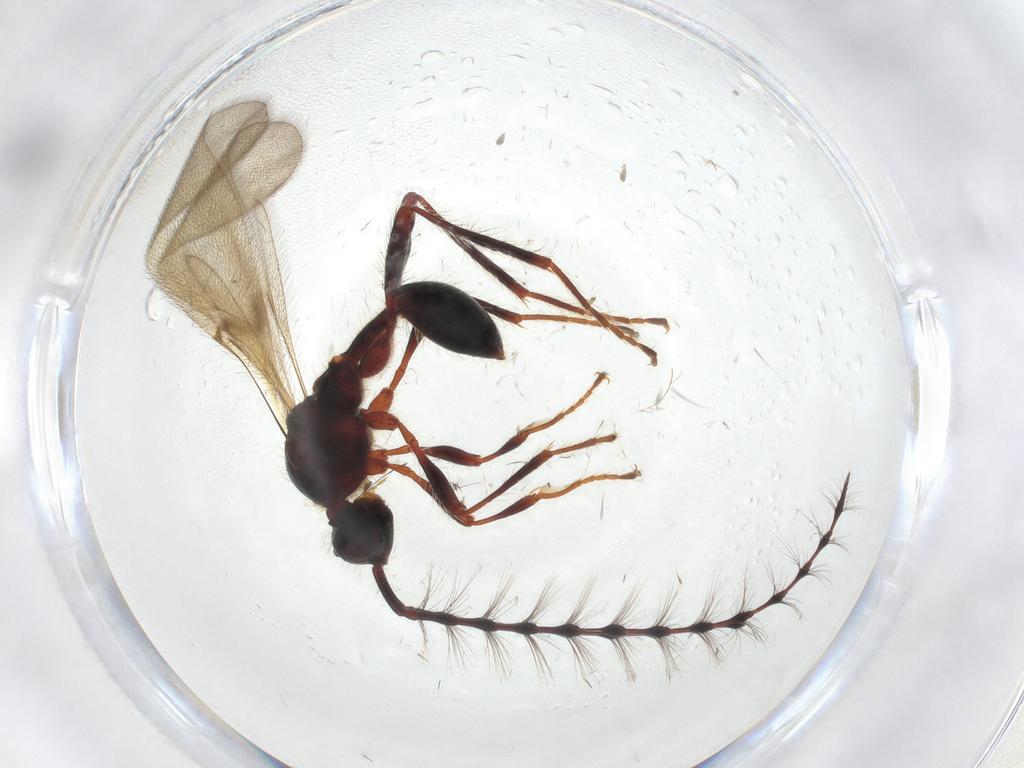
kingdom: Animalia
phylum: Arthropoda
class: Insecta
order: Hymenoptera
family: Diapriidae
